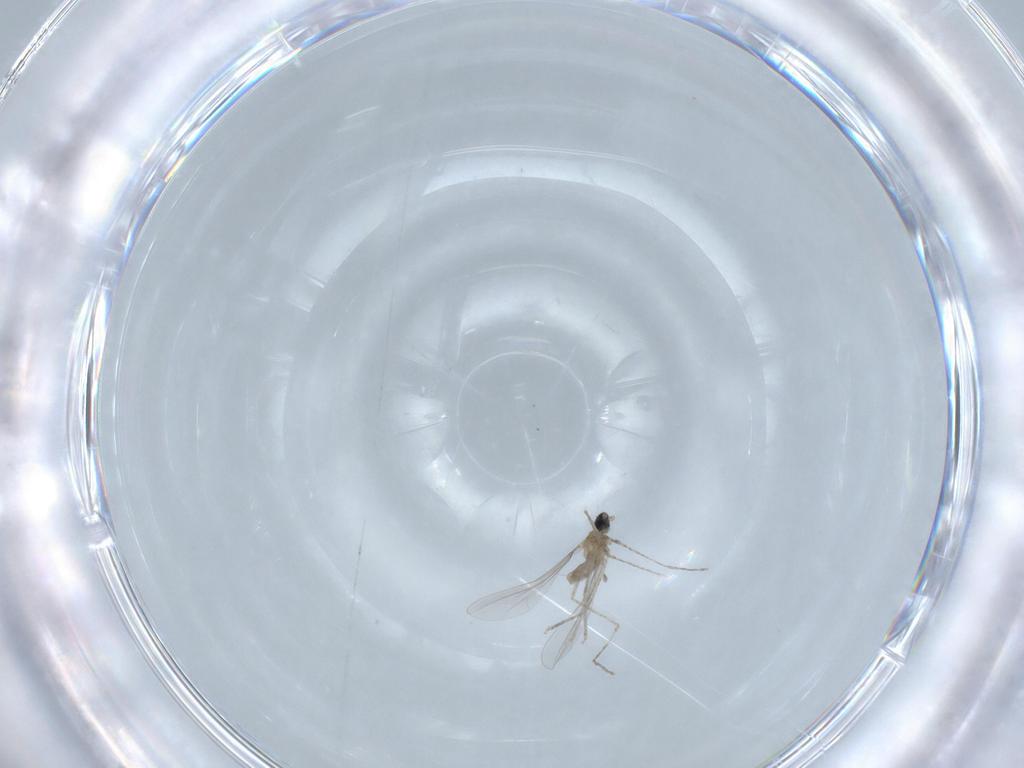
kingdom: Animalia
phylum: Arthropoda
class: Insecta
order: Diptera
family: Cecidomyiidae
